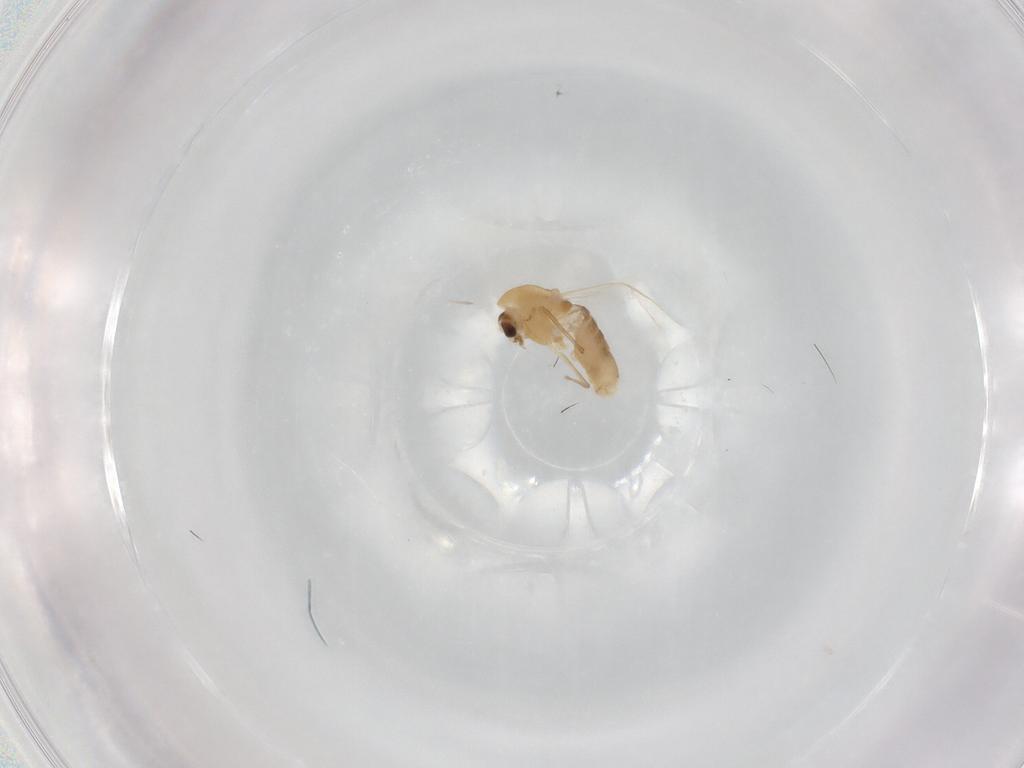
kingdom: Animalia
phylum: Arthropoda
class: Insecta
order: Diptera
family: Chironomidae
